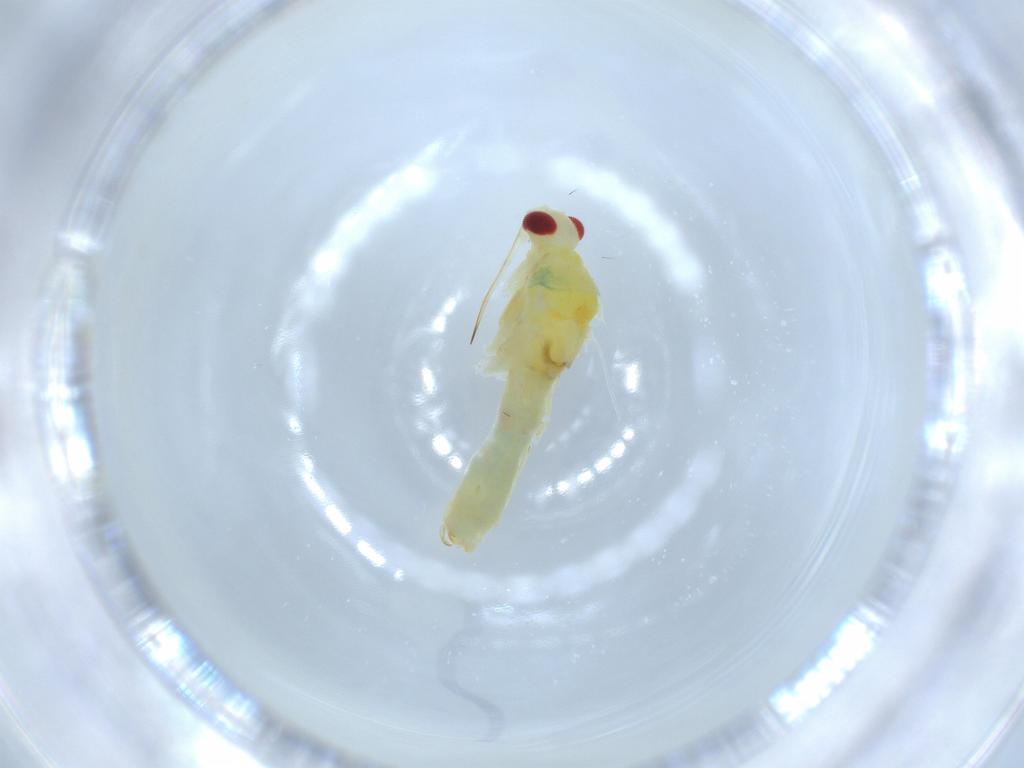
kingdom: Animalia
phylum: Arthropoda
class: Insecta
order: Hemiptera
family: Miridae
